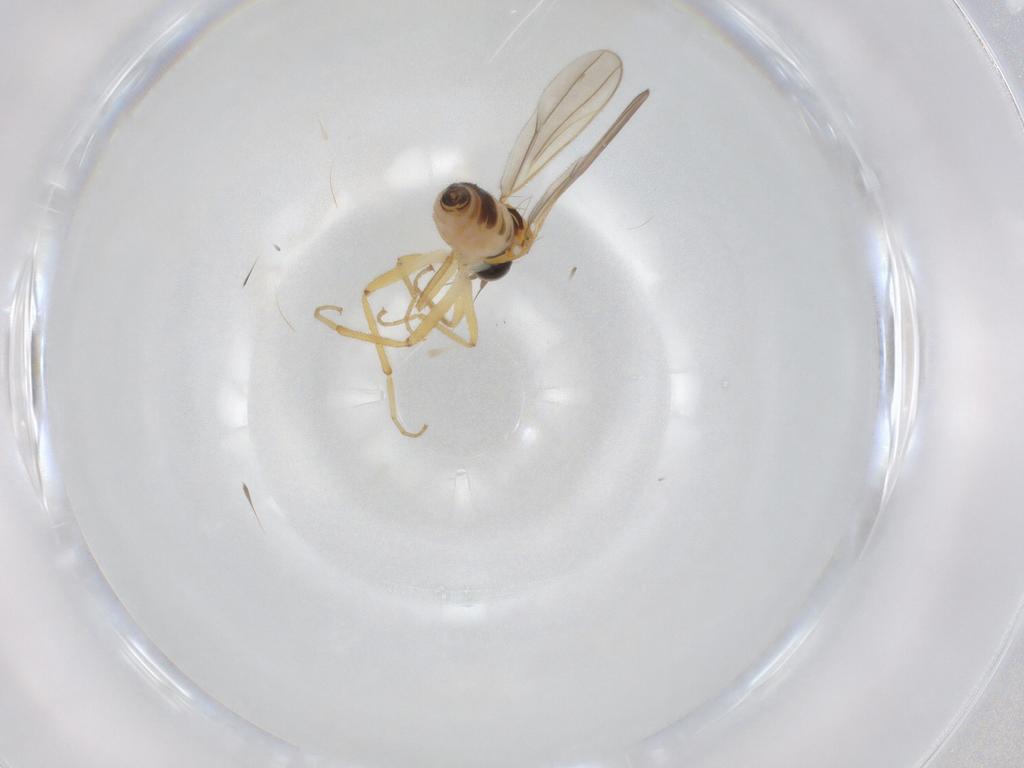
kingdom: Animalia
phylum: Arthropoda
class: Insecta
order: Diptera
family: Hybotidae
